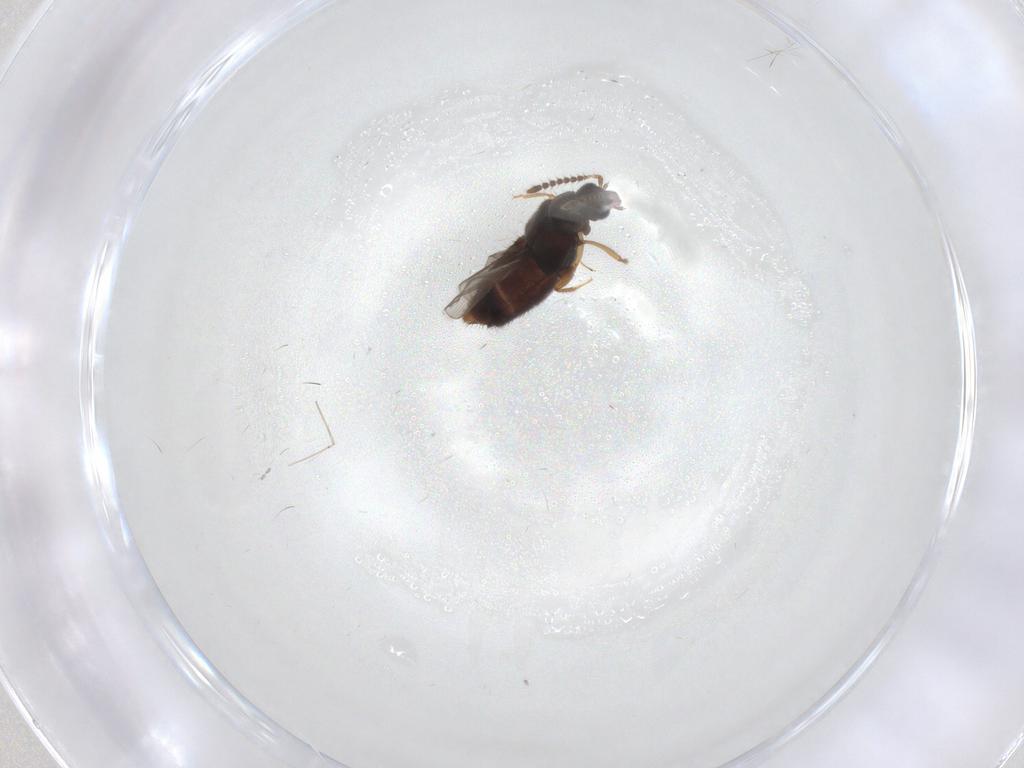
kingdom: Animalia
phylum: Arthropoda
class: Insecta
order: Coleoptera
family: Staphylinidae
